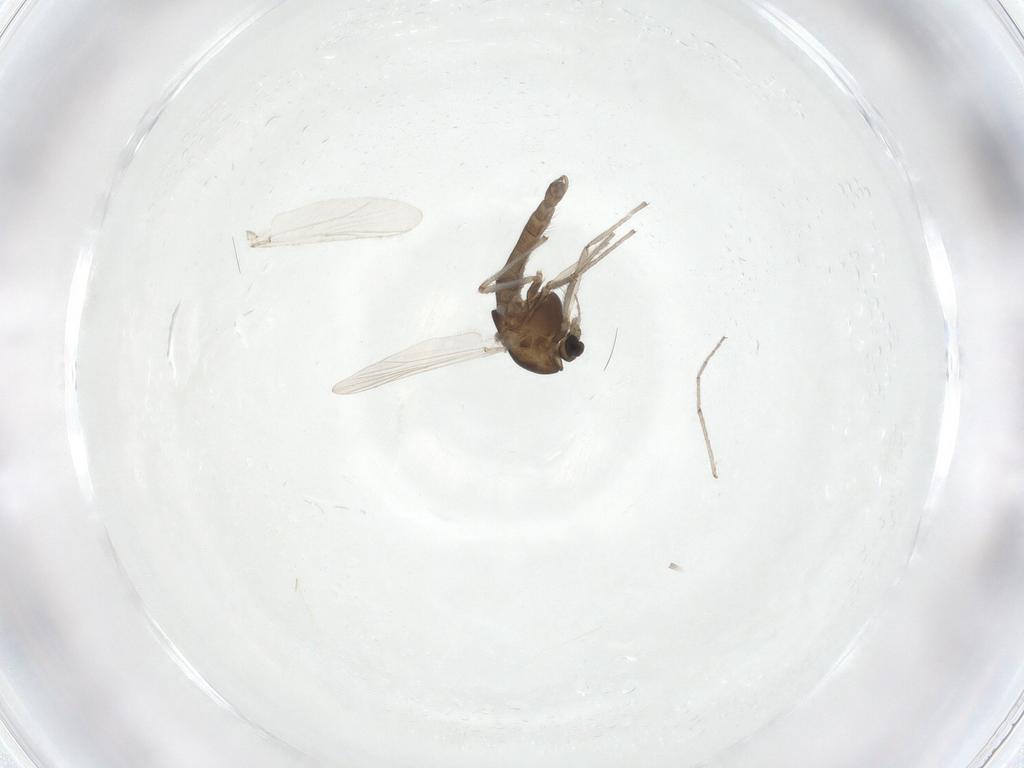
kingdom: Animalia
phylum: Arthropoda
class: Insecta
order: Diptera
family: Chironomidae
